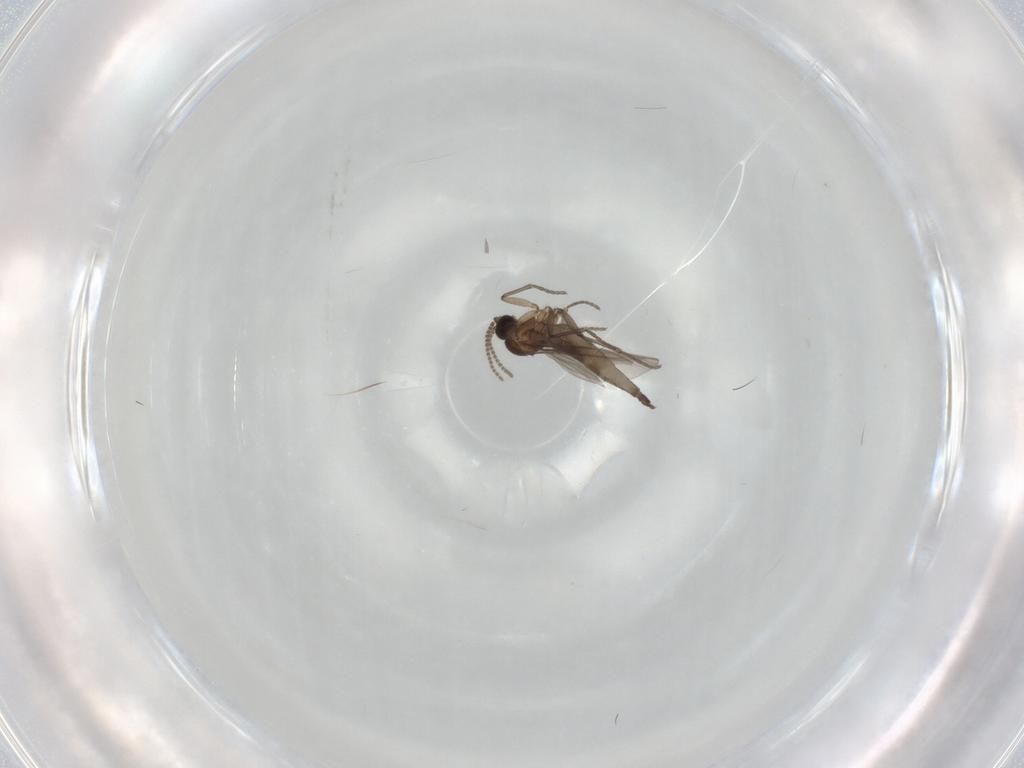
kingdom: Animalia
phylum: Arthropoda
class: Insecta
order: Diptera
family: Sciaridae
